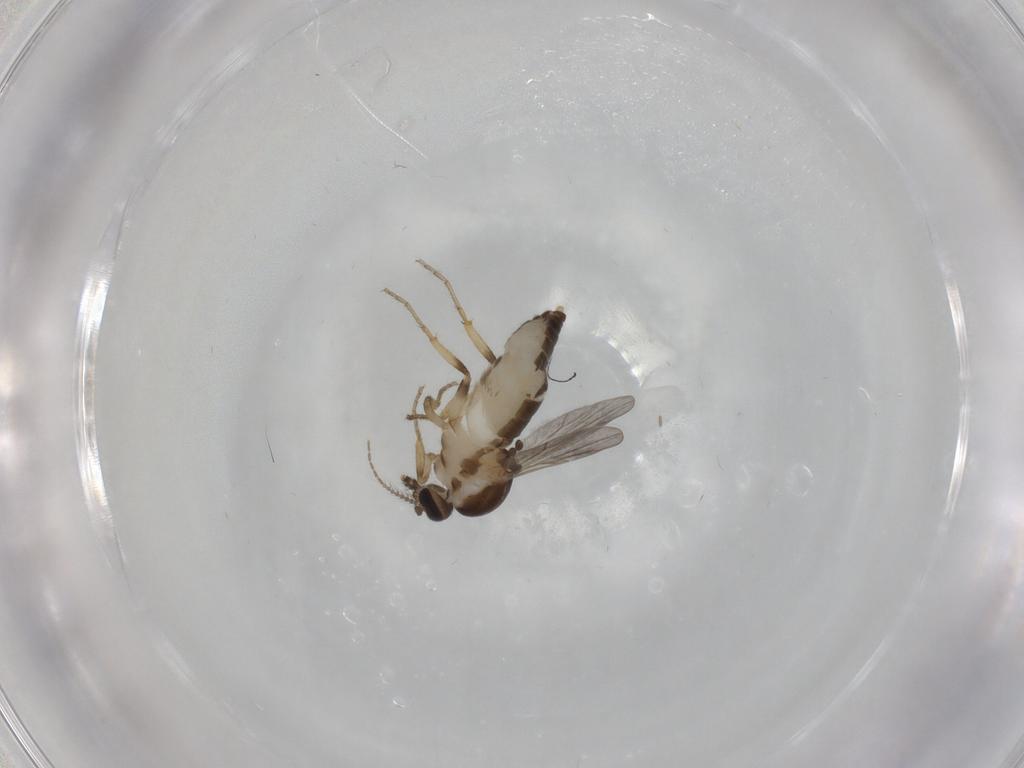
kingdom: Animalia
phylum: Arthropoda
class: Insecta
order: Diptera
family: Ceratopogonidae
